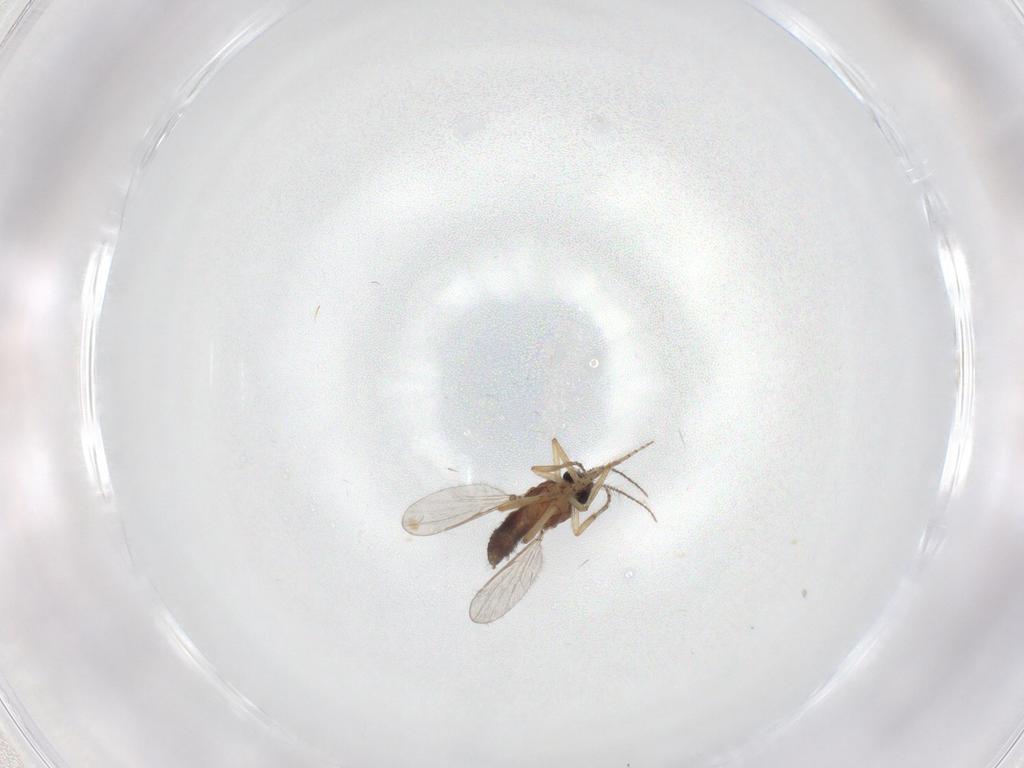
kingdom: Animalia
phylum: Arthropoda
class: Insecta
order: Diptera
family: Ceratopogonidae
